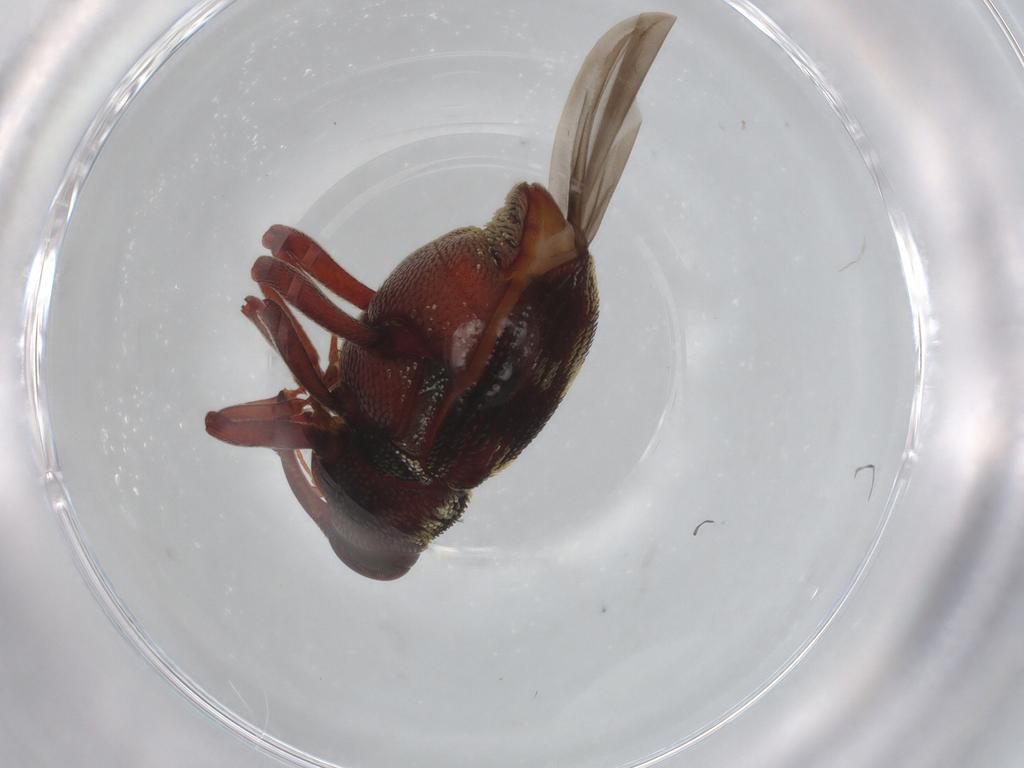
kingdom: Animalia
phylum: Arthropoda
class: Insecta
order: Coleoptera
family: Curculionidae
